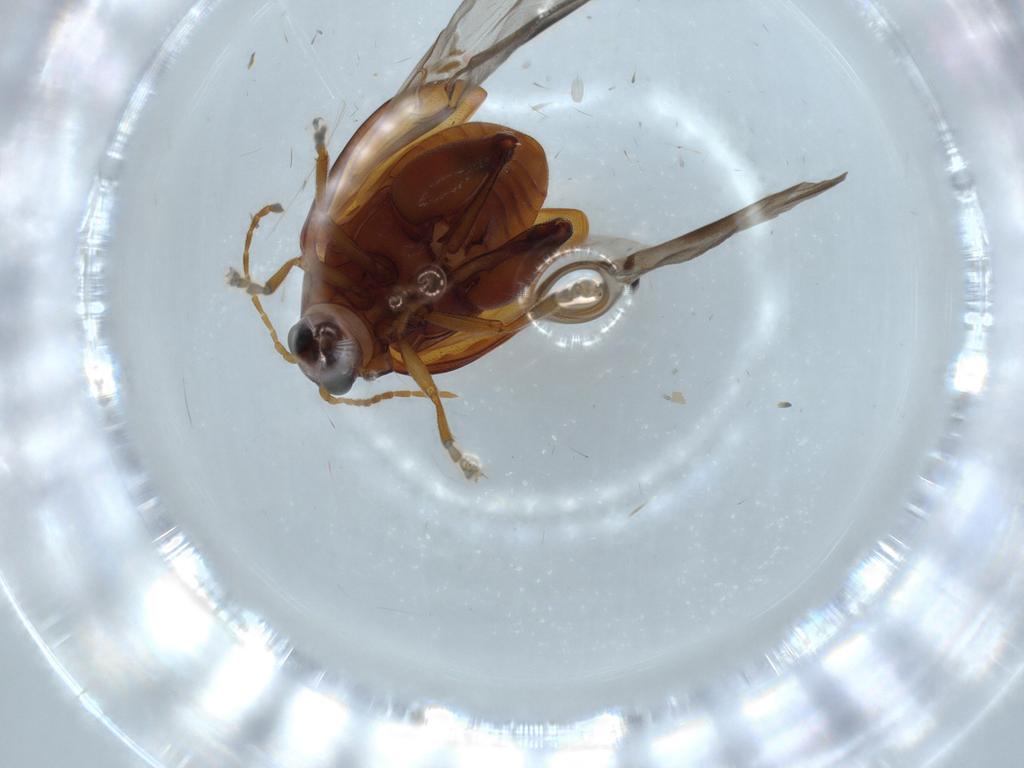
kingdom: Animalia
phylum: Arthropoda
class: Insecta
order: Coleoptera
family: Chrysomelidae
